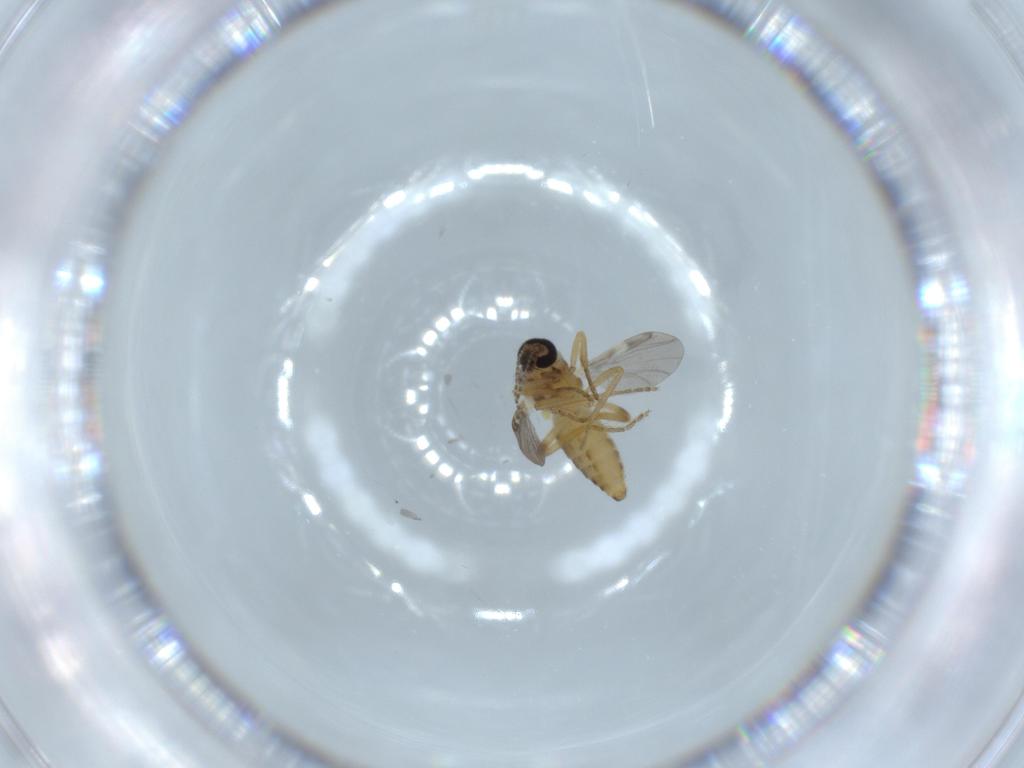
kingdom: Animalia
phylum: Arthropoda
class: Insecta
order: Diptera
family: Ceratopogonidae
